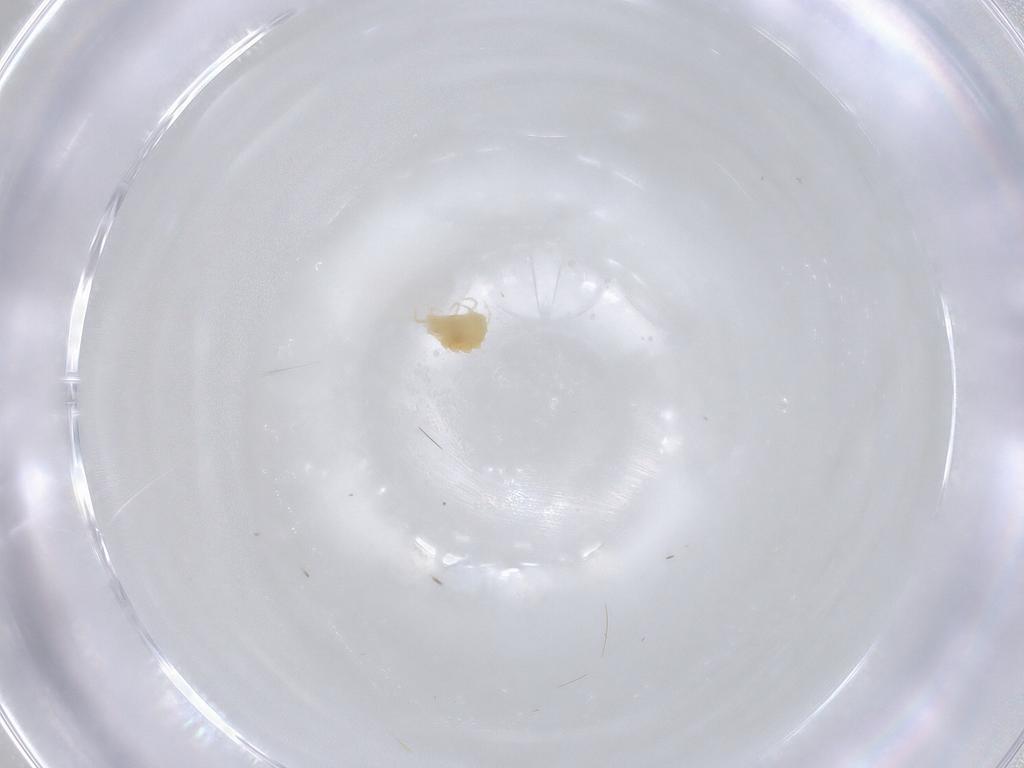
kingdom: Animalia
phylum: Arthropoda
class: Arachnida
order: Trombidiformes
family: Tetranychidae
